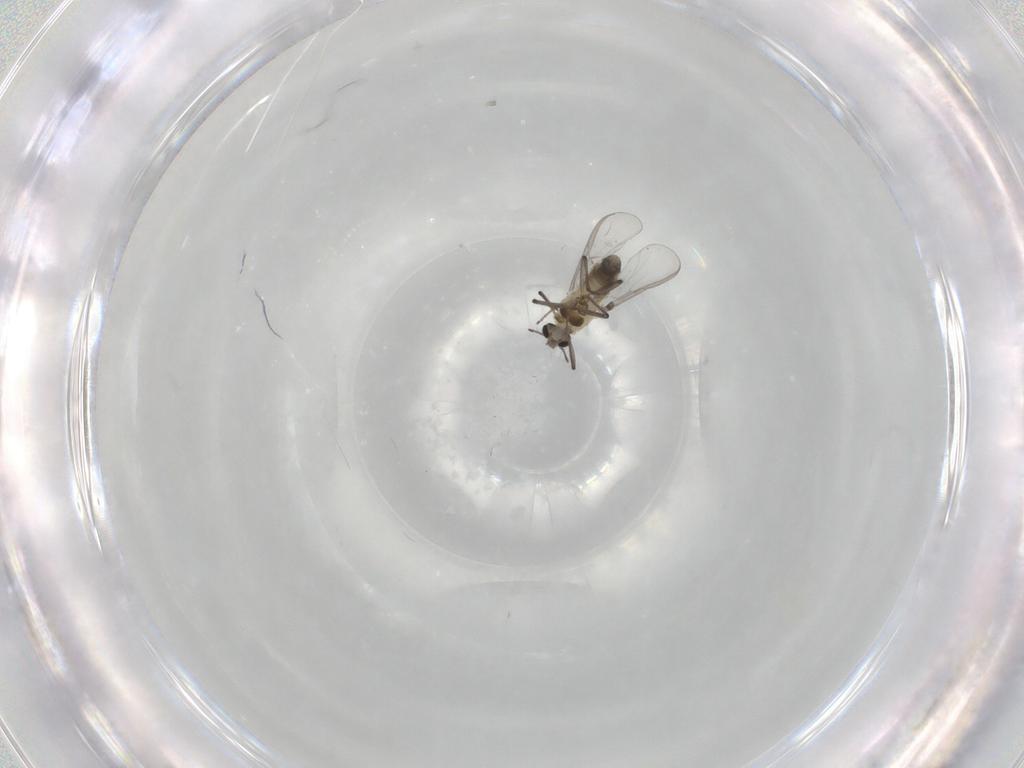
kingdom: Animalia
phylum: Arthropoda
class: Insecta
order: Diptera
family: Chironomidae
